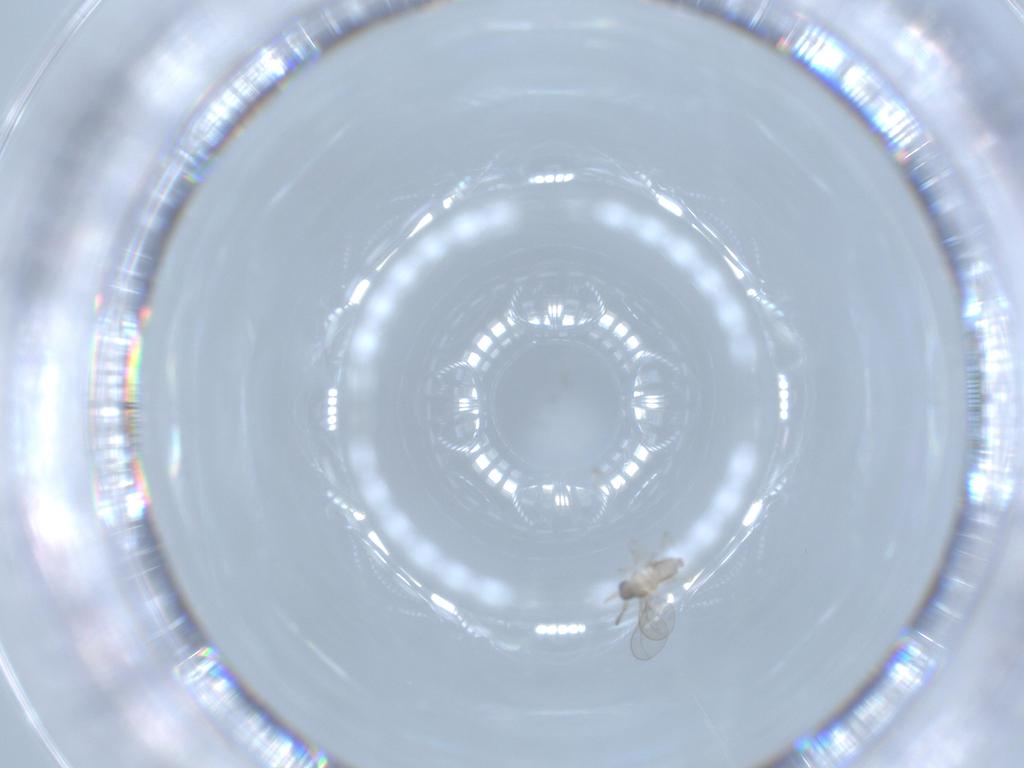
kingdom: Animalia
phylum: Arthropoda
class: Insecta
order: Diptera
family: Cecidomyiidae
